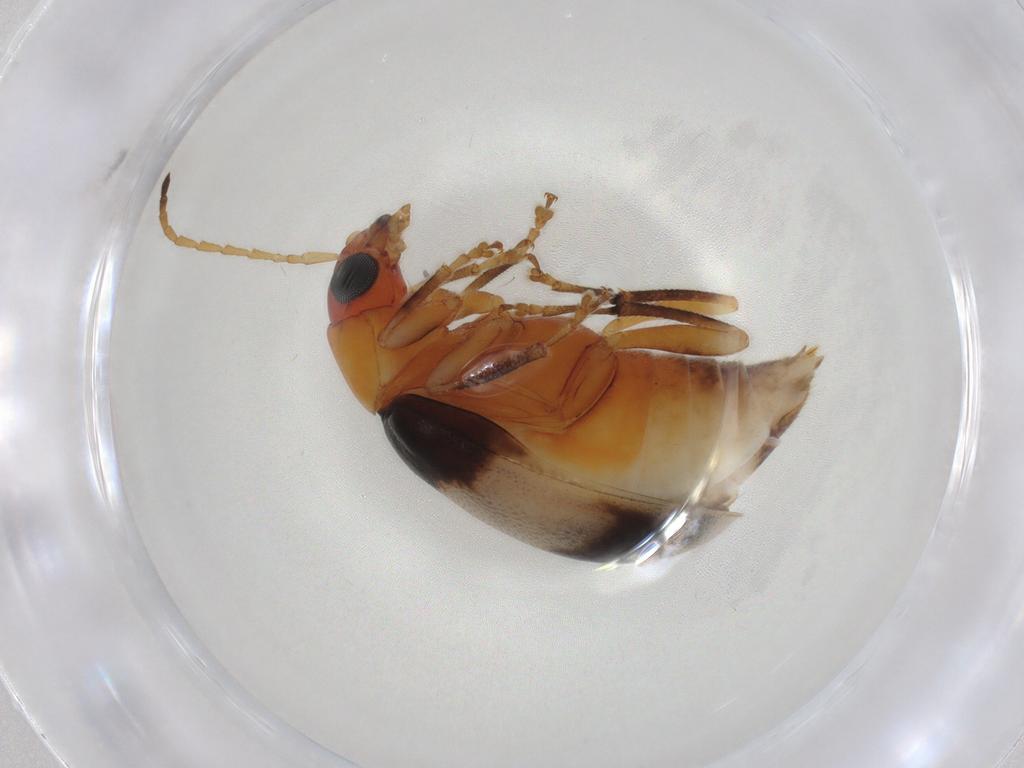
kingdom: Animalia
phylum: Arthropoda
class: Insecta
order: Coleoptera
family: Chrysomelidae
